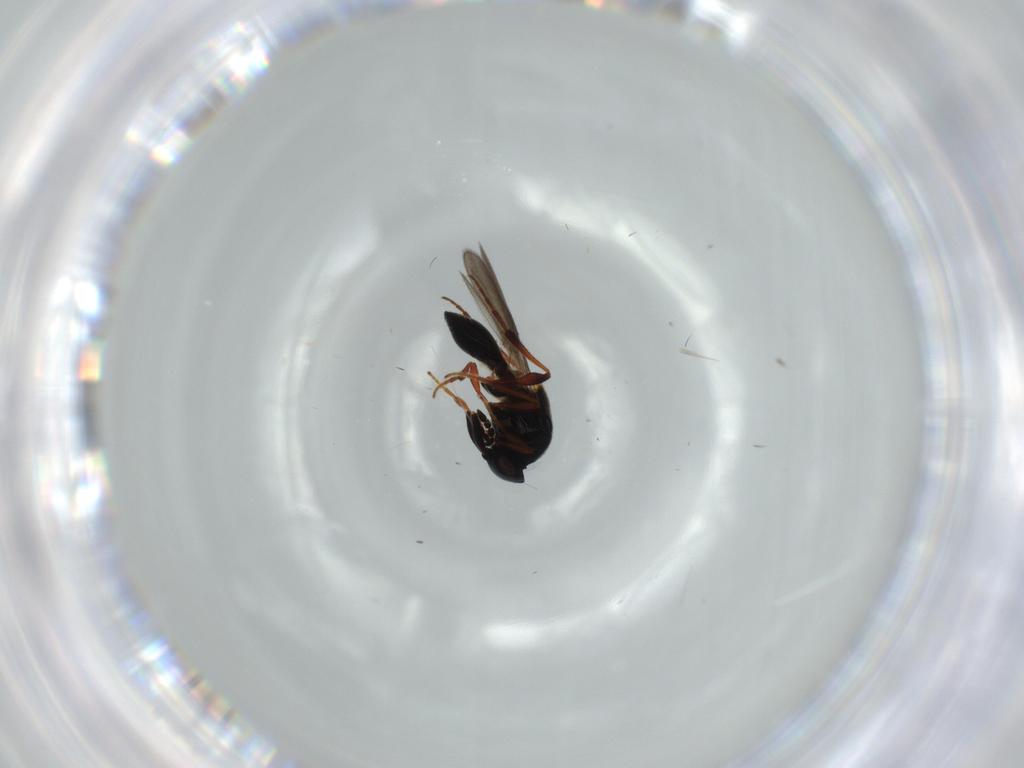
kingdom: Animalia
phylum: Arthropoda
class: Insecta
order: Hymenoptera
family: Platygastridae
